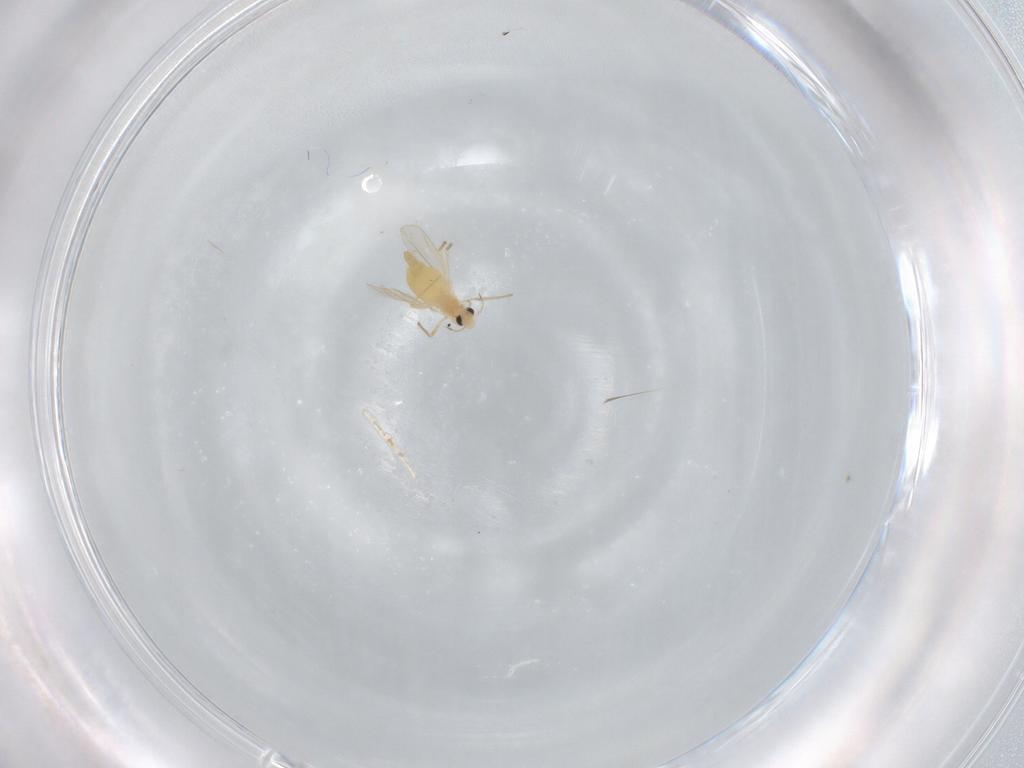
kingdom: Animalia
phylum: Arthropoda
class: Insecta
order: Diptera
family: Chironomidae
